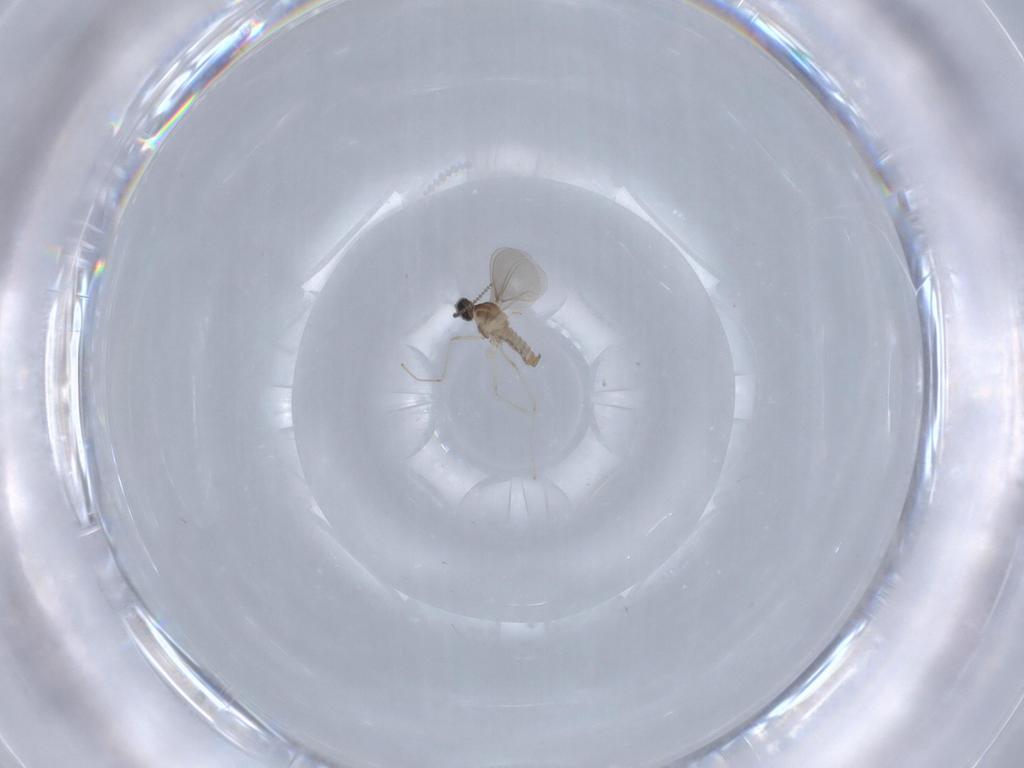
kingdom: Animalia
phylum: Arthropoda
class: Insecta
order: Diptera
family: Cecidomyiidae
